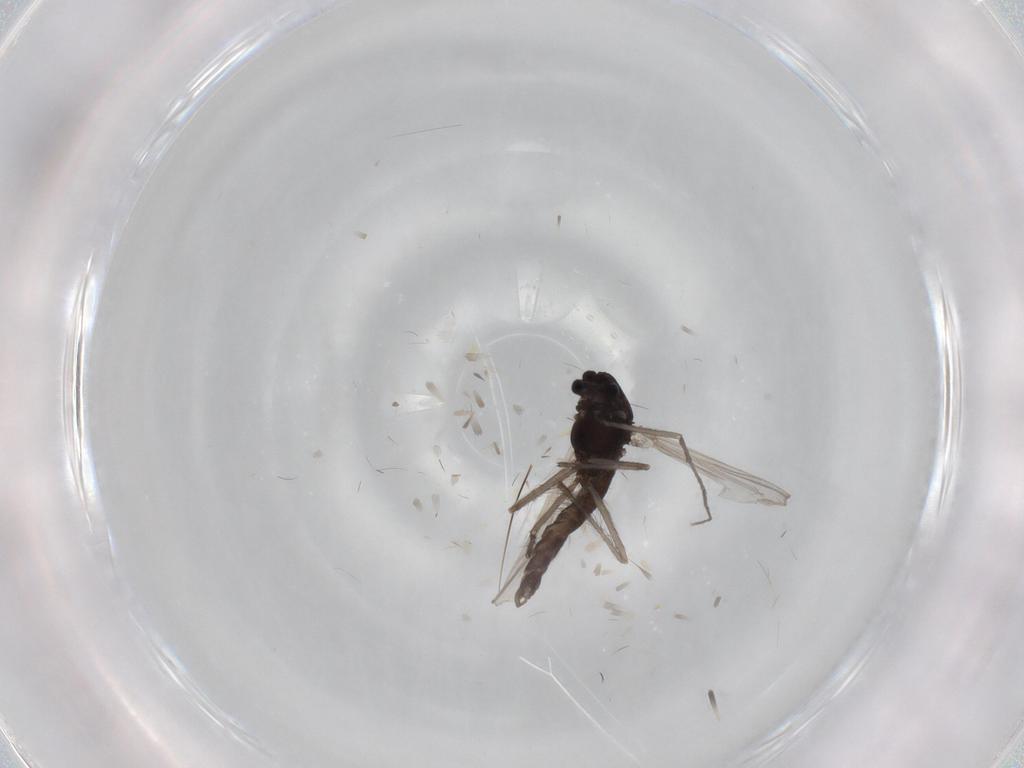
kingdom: Animalia
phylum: Arthropoda
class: Insecta
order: Diptera
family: Chironomidae
